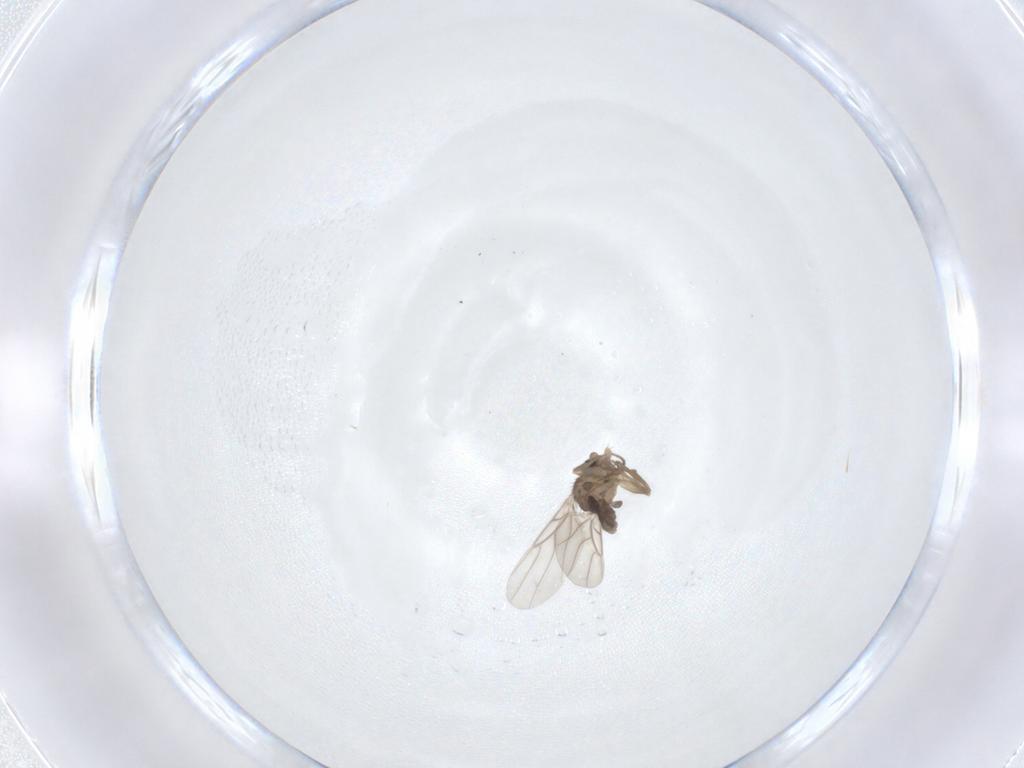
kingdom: Animalia
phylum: Arthropoda
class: Insecta
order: Diptera
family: Phoridae
